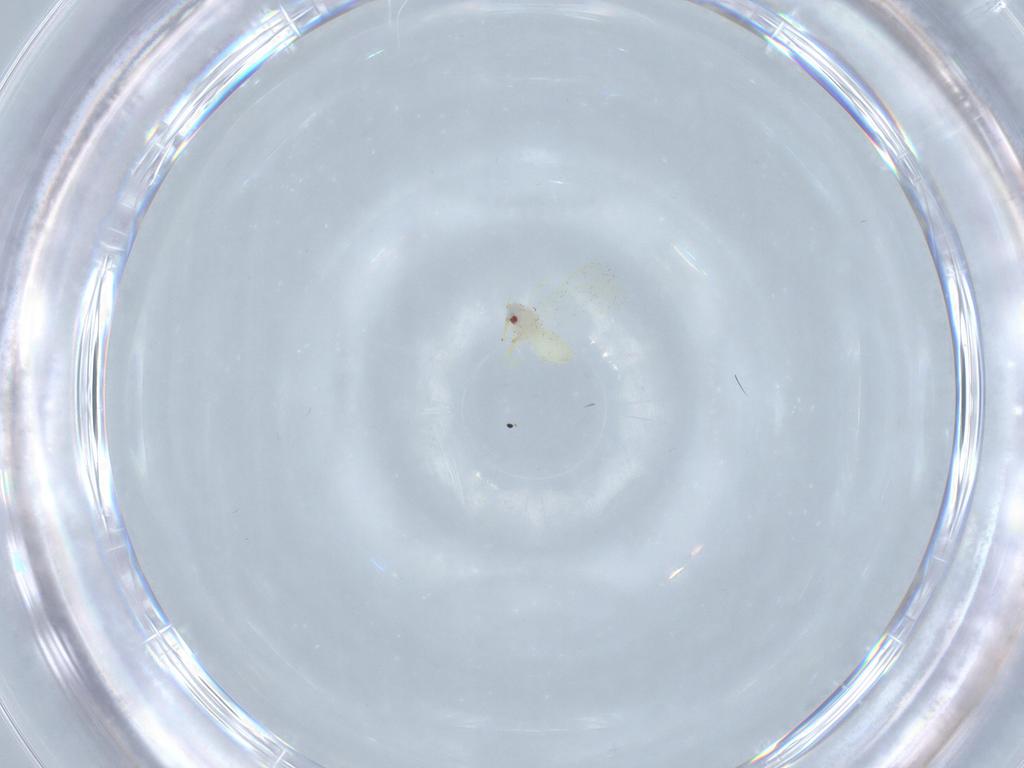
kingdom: Animalia
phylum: Arthropoda
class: Insecta
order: Hemiptera
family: Aleyrodidae
